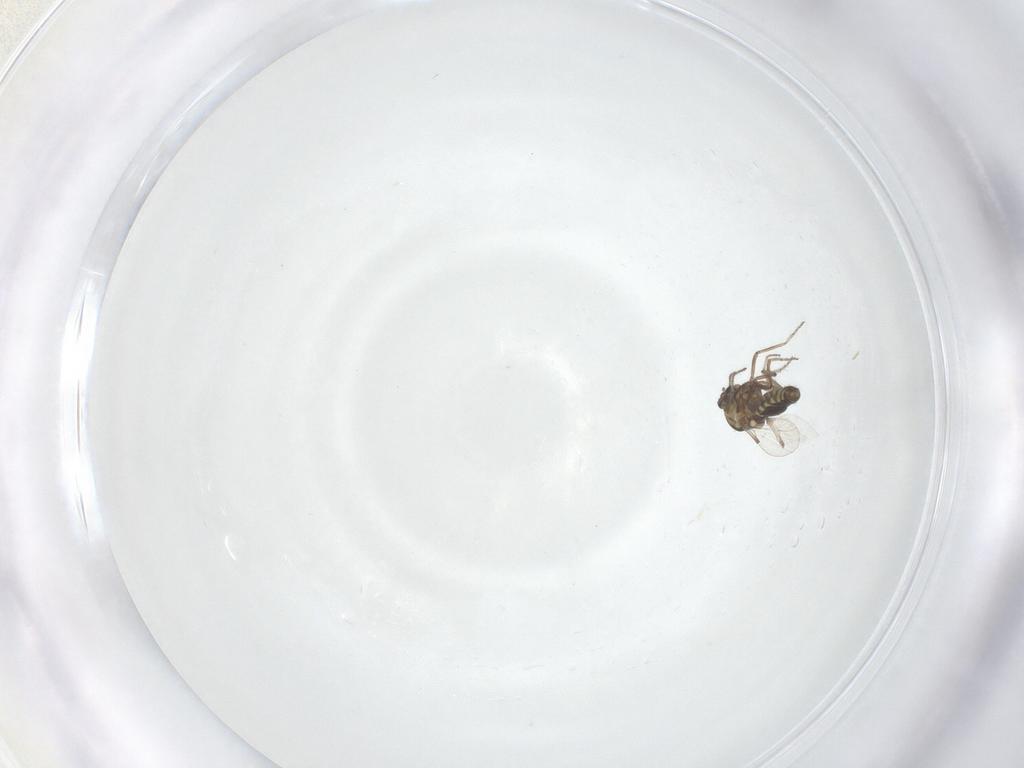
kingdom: Animalia
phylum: Arthropoda
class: Insecta
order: Diptera
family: Ceratopogonidae
